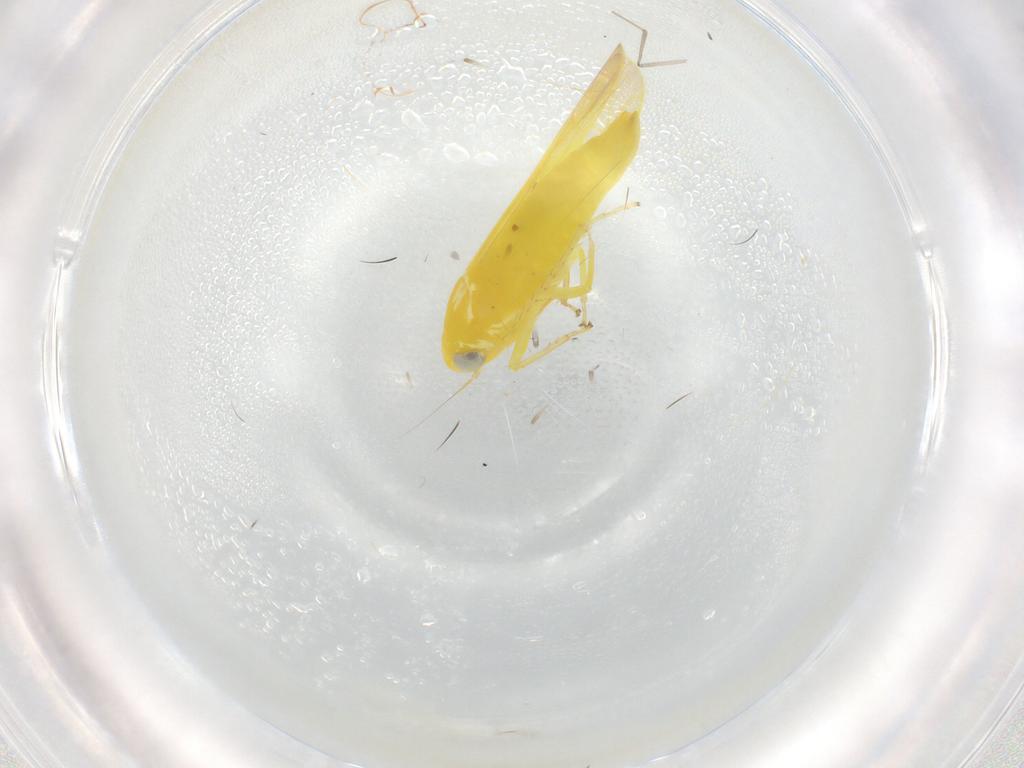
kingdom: Animalia
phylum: Arthropoda
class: Insecta
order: Hemiptera
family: Cicadellidae
